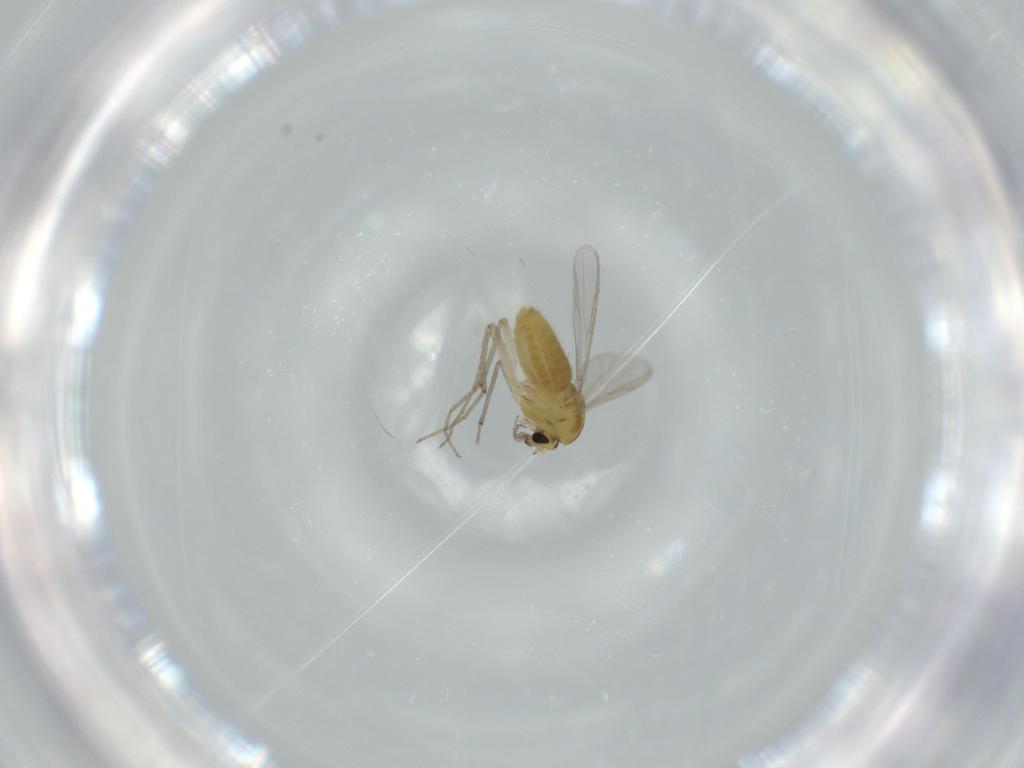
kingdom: Animalia
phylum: Arthropoda
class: Insecta
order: Diptera
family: Chironomidae
